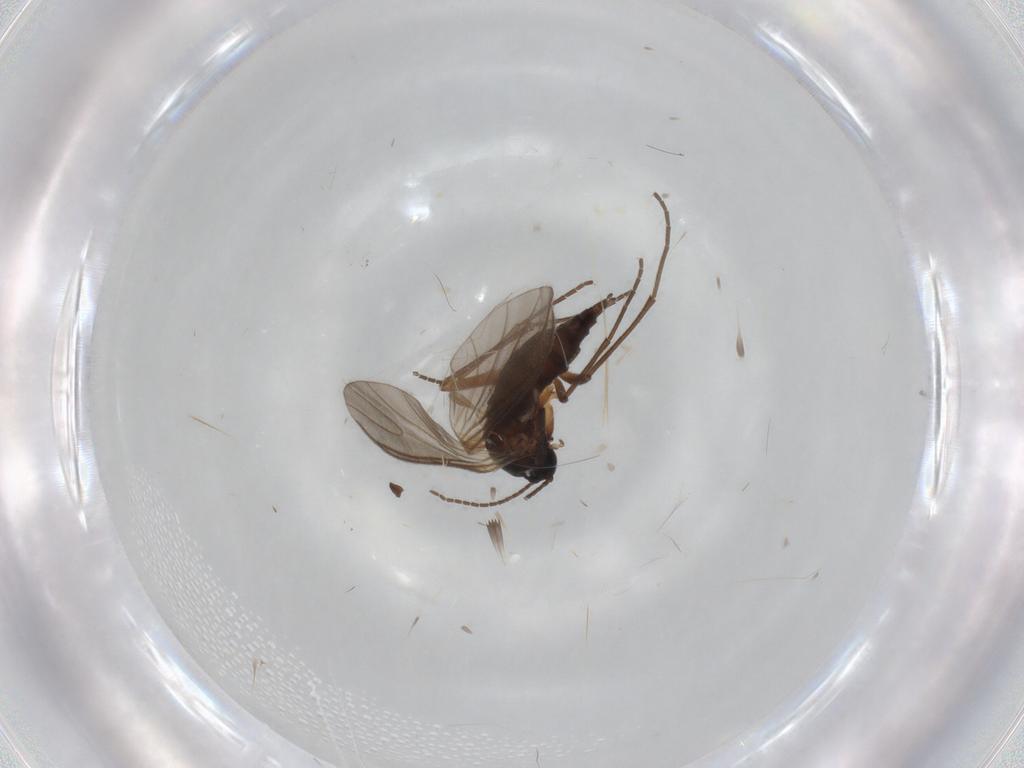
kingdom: Animalia
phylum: Arthropoda
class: Insecta
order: Diptera
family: Sciaridae
